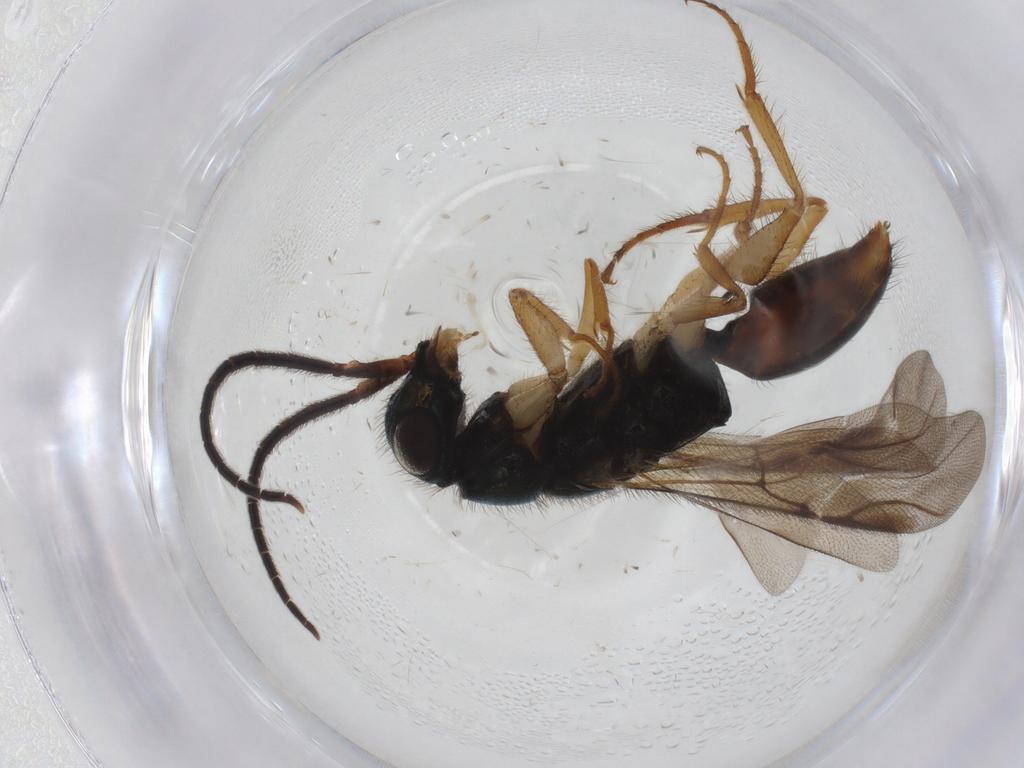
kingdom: Animalia
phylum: Arthropoda
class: Insecta
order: Hymenoptera
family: Chrysididae
